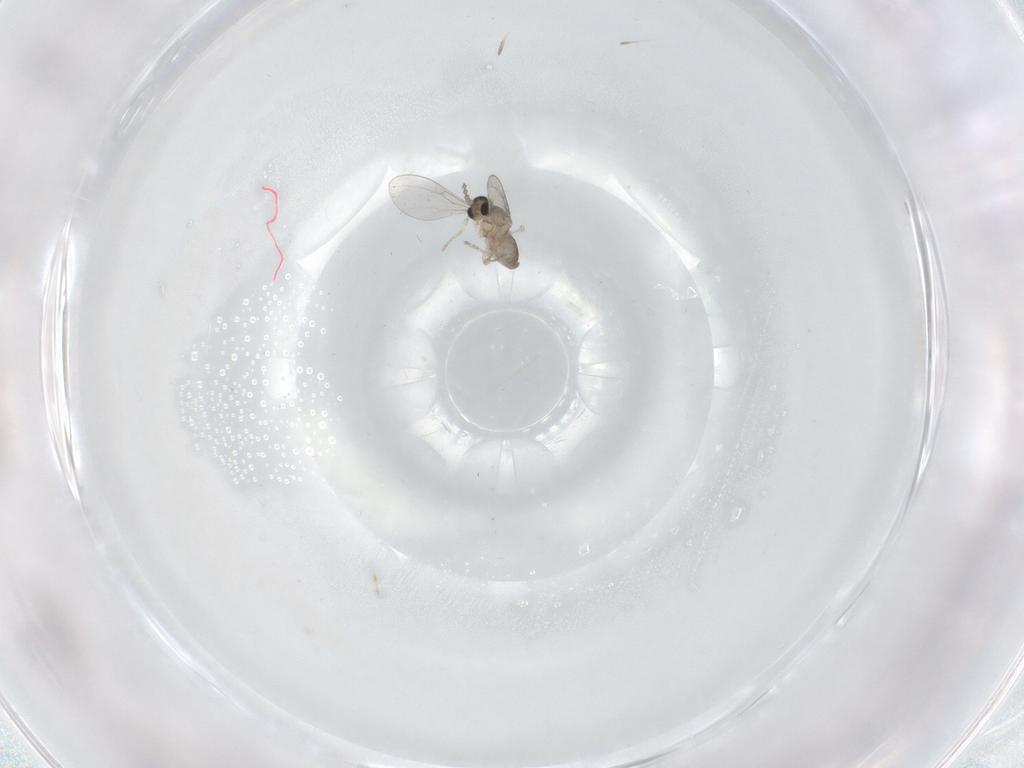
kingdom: Animalia
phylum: Arthropoda
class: Insecta
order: Diptera
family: Cecidomyiidae
